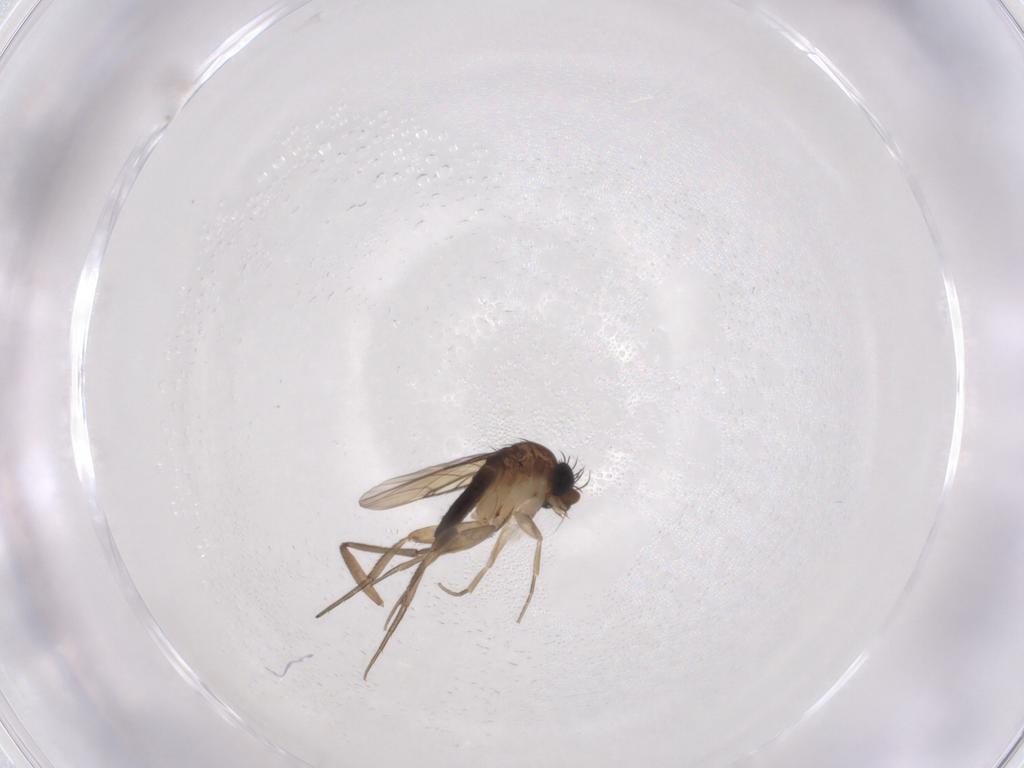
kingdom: Animalia
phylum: Arthropoda
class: Insecta
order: Diptera
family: Phoridae
